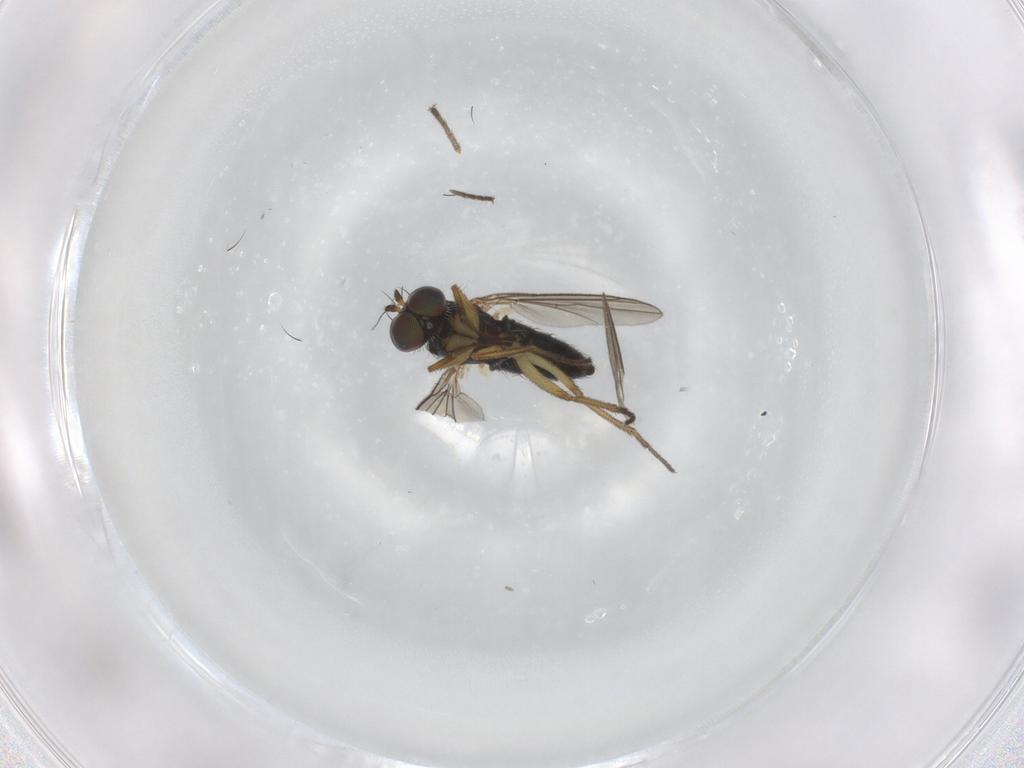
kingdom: Animalia
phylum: Arthropoda
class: Insecta
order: Diptera
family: Dolichopodidae
